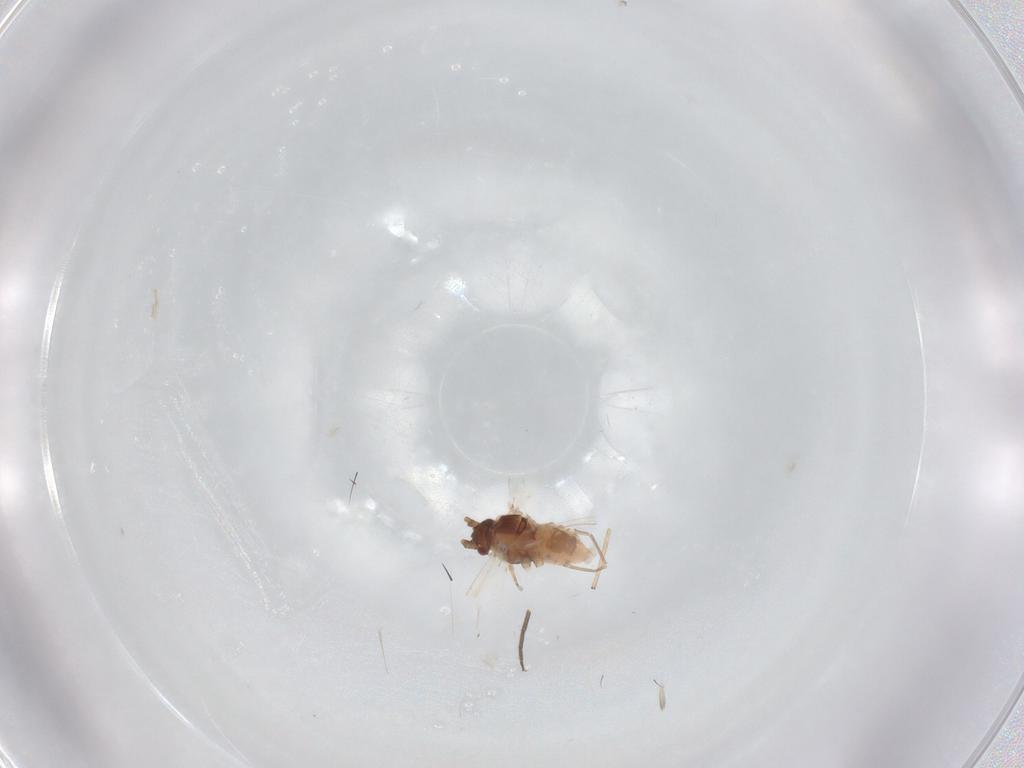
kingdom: Animalia
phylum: Arthropoda
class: Insecta
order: Hemiptera
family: Aphididae
